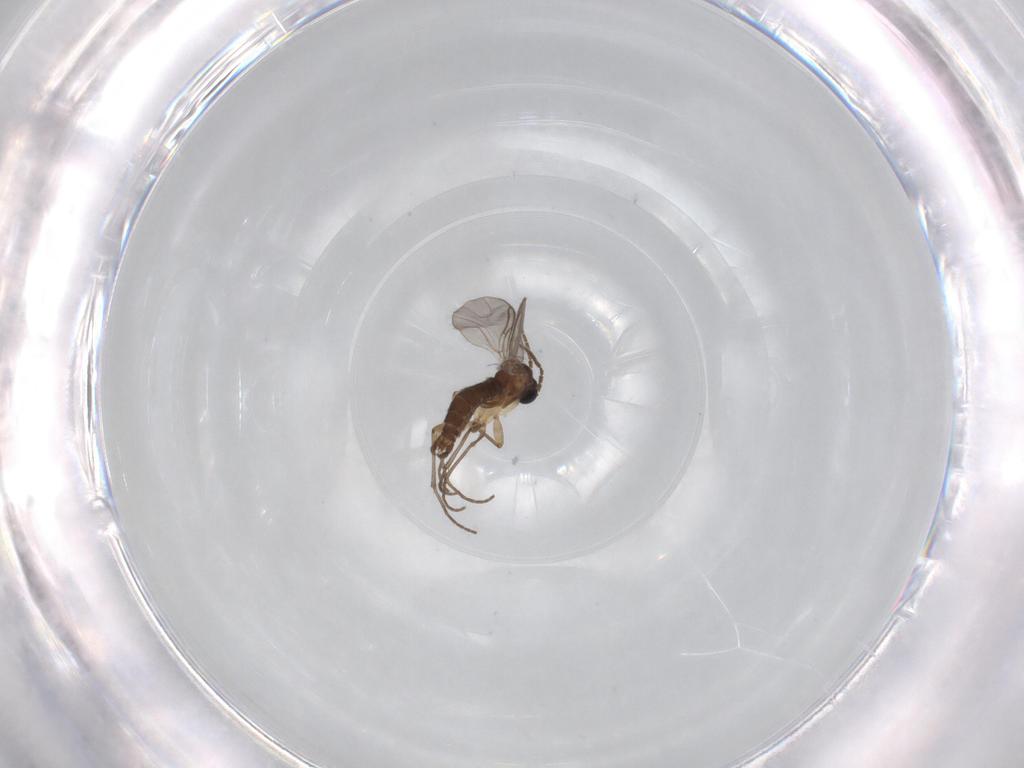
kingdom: Animalia
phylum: Arthropoda
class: Insecta
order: Diptera
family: Sciaridae
